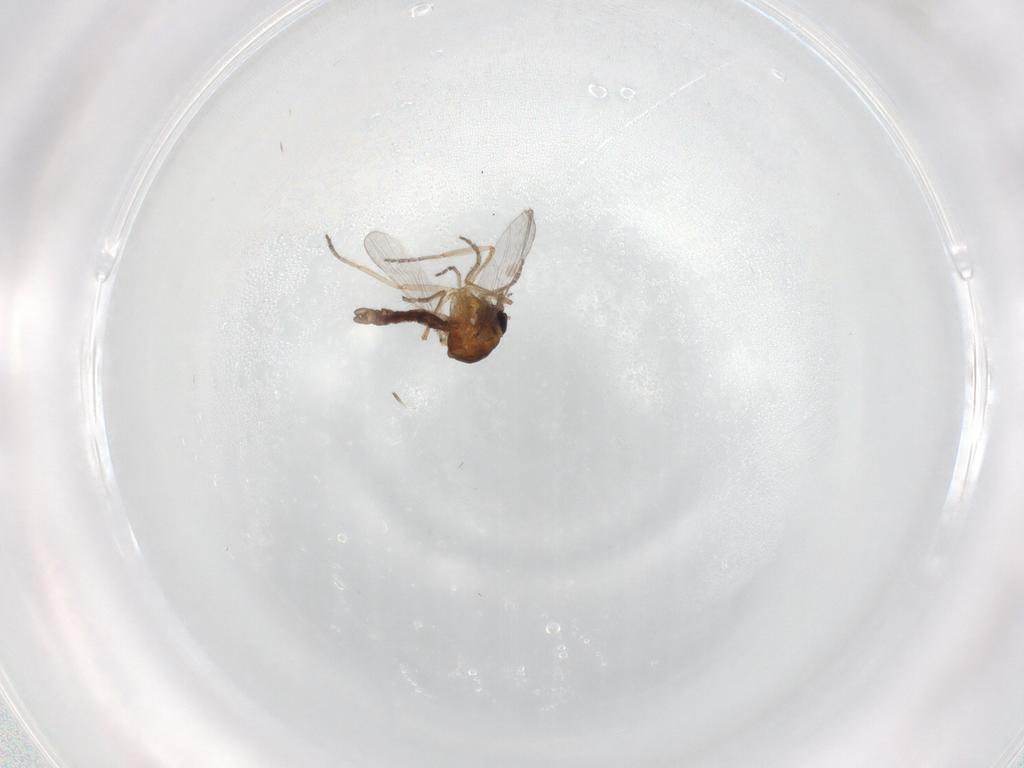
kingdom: Animalia
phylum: Arthropoda
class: Insecta
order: Diptera
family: Ceratopogonidae
